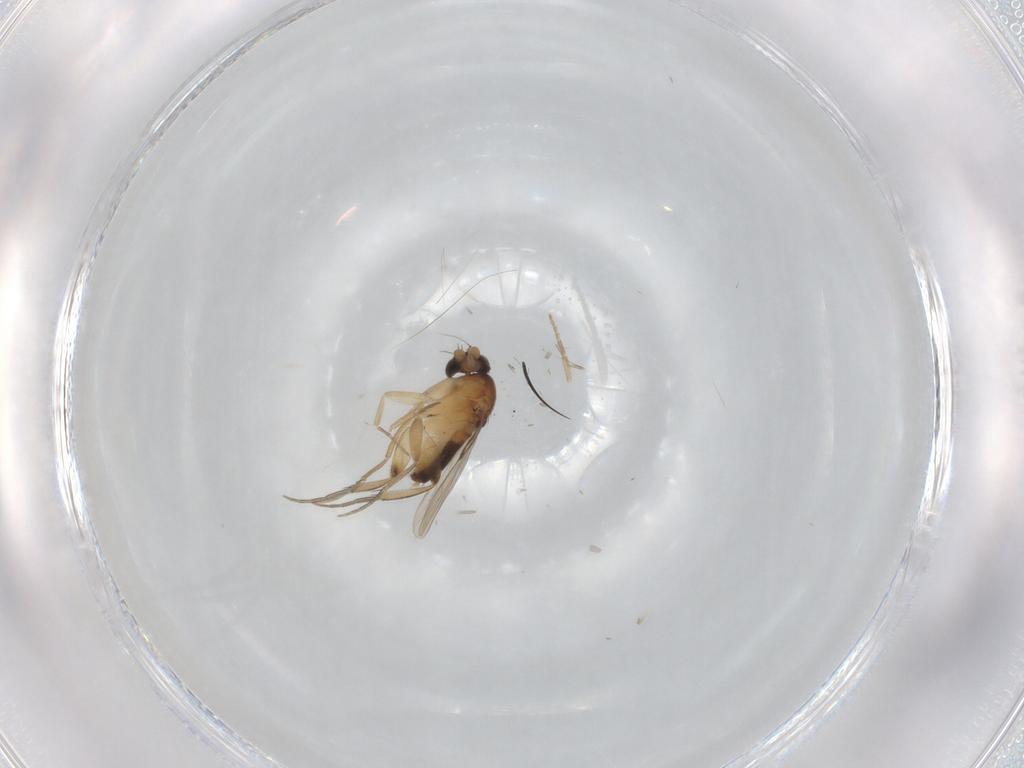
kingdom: Animalia
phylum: Arthropoda
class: Insecta
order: Diptera
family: Phoridae
